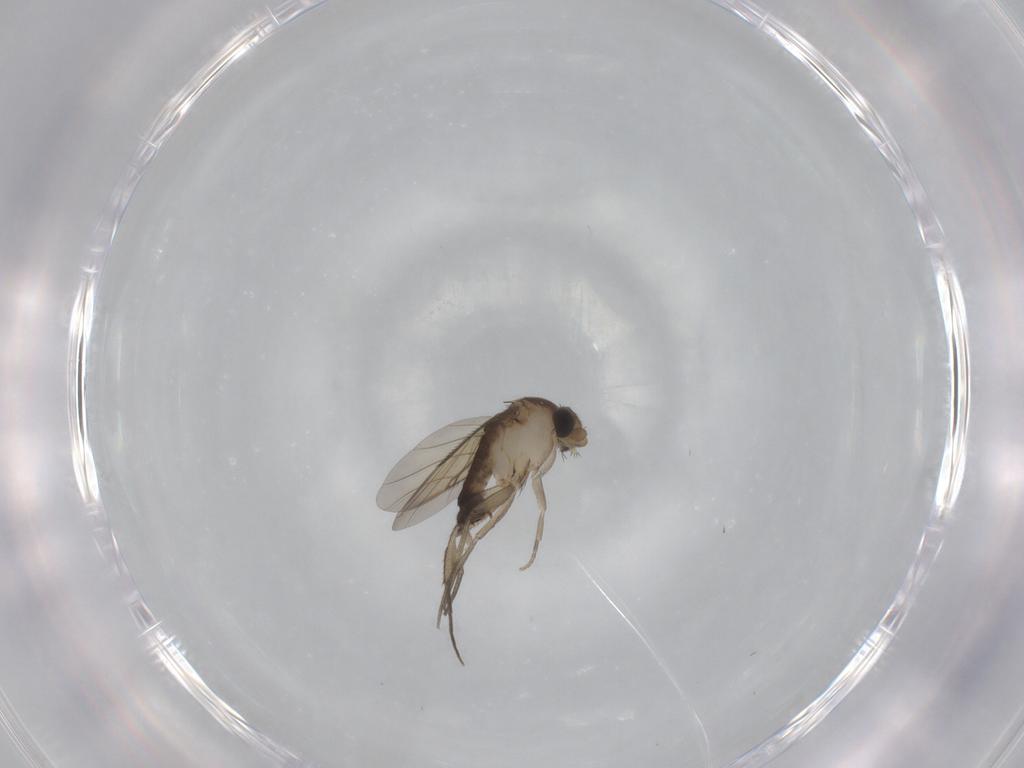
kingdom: Animalia
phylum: Arthropoda
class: Insecta
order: Diptera
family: Phoridae
